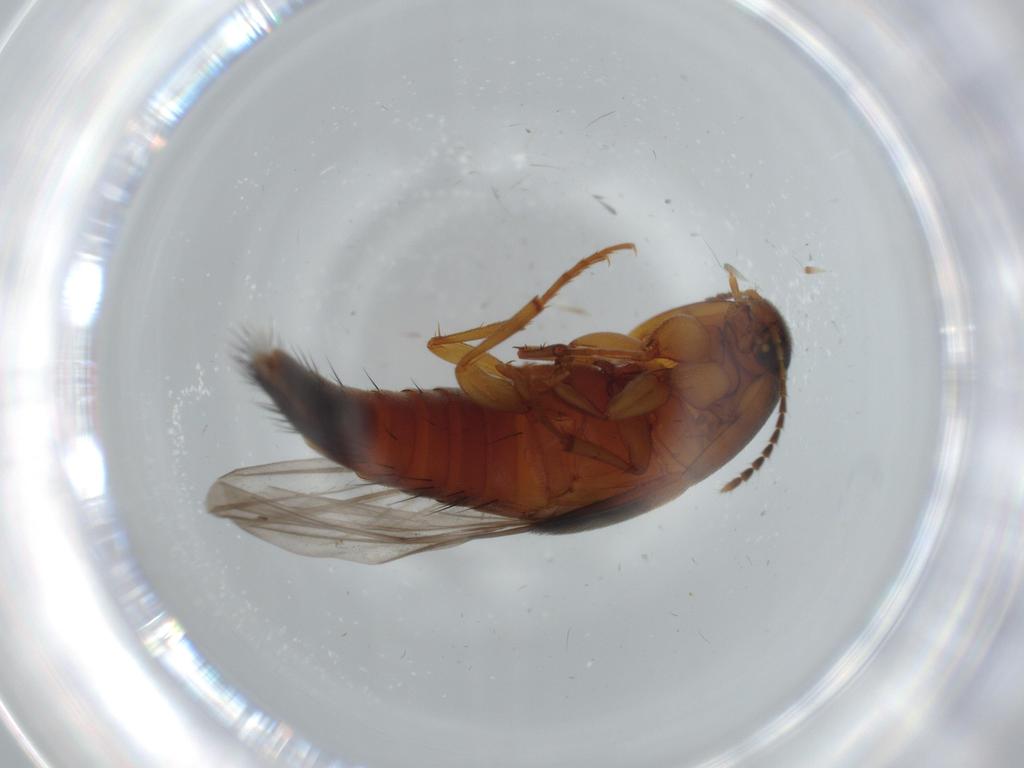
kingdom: Animalia
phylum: Arthropoda
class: Insecta
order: Coleoptera
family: Staphylinidae
